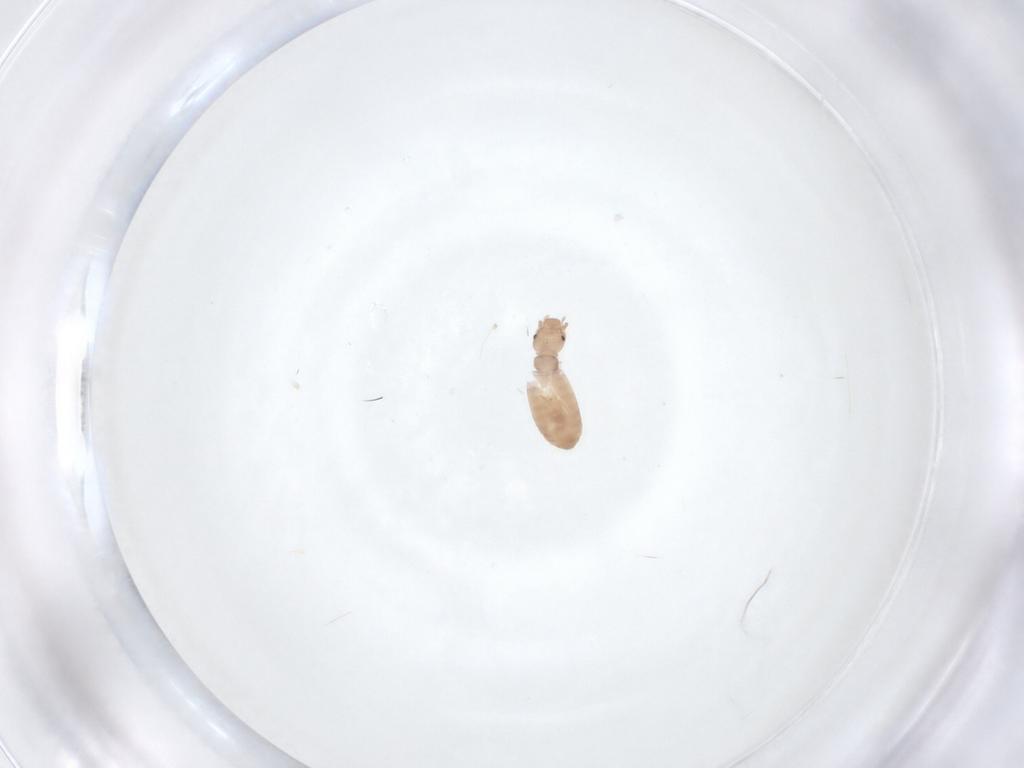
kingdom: Animalia
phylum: Arthropoda
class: Insecta
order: Psocodea
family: Liposcelididae
